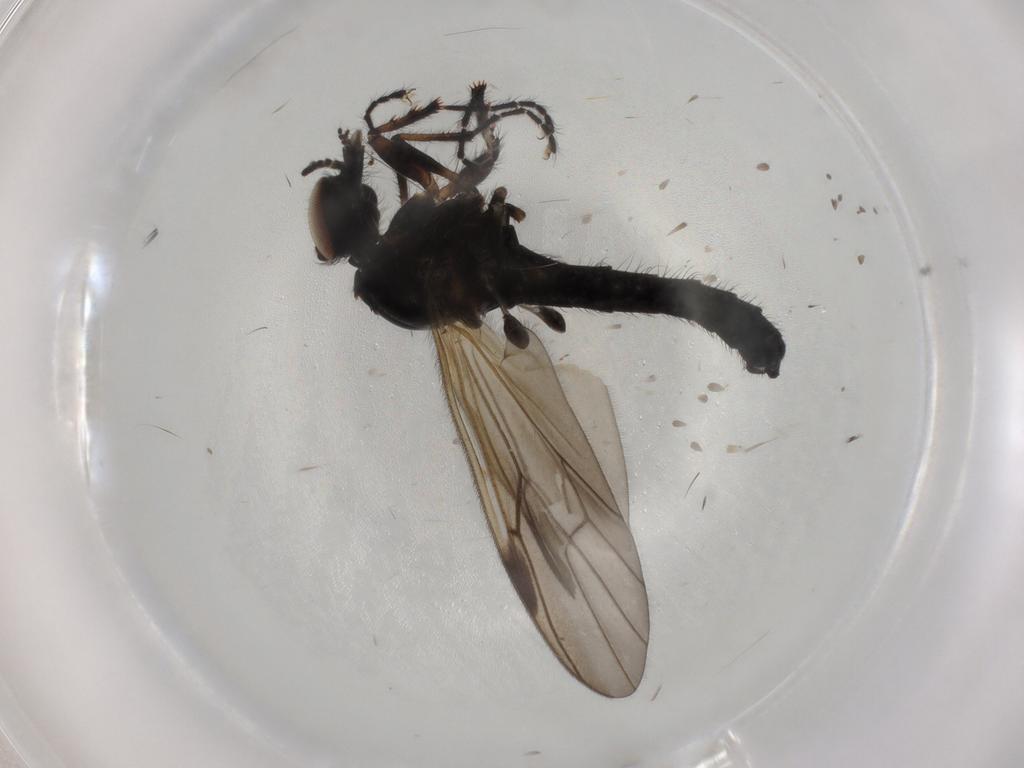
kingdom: Animalia
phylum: Arthropoda
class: Insecta
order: Diptera
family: Bibionidae
